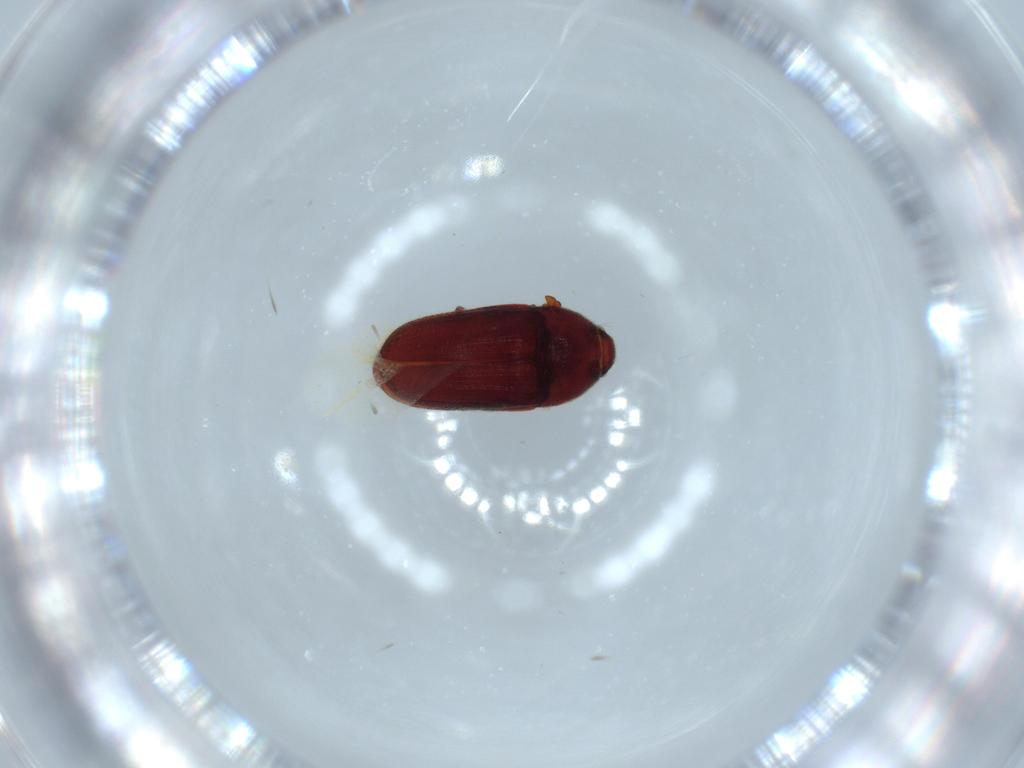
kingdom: Animalia
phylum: Arthropoda
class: Insecta
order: Coleoptera
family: Throscidae
